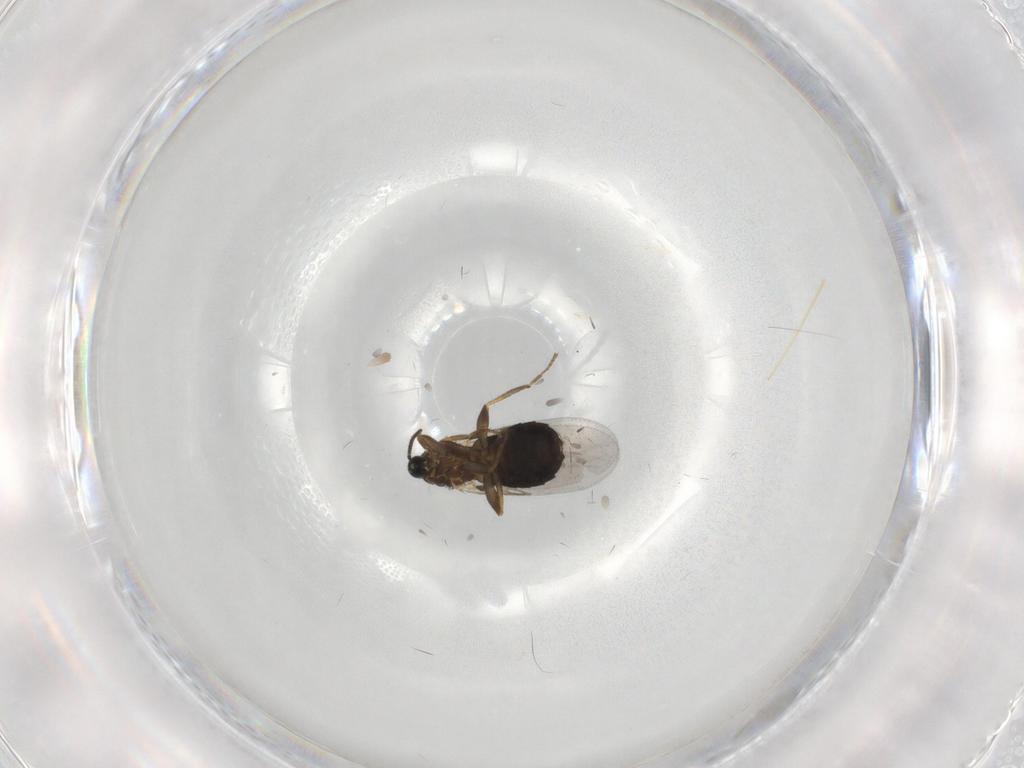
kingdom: Animalia
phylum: Arthropoda
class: Insecta
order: Diptera
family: Scatopsidae
